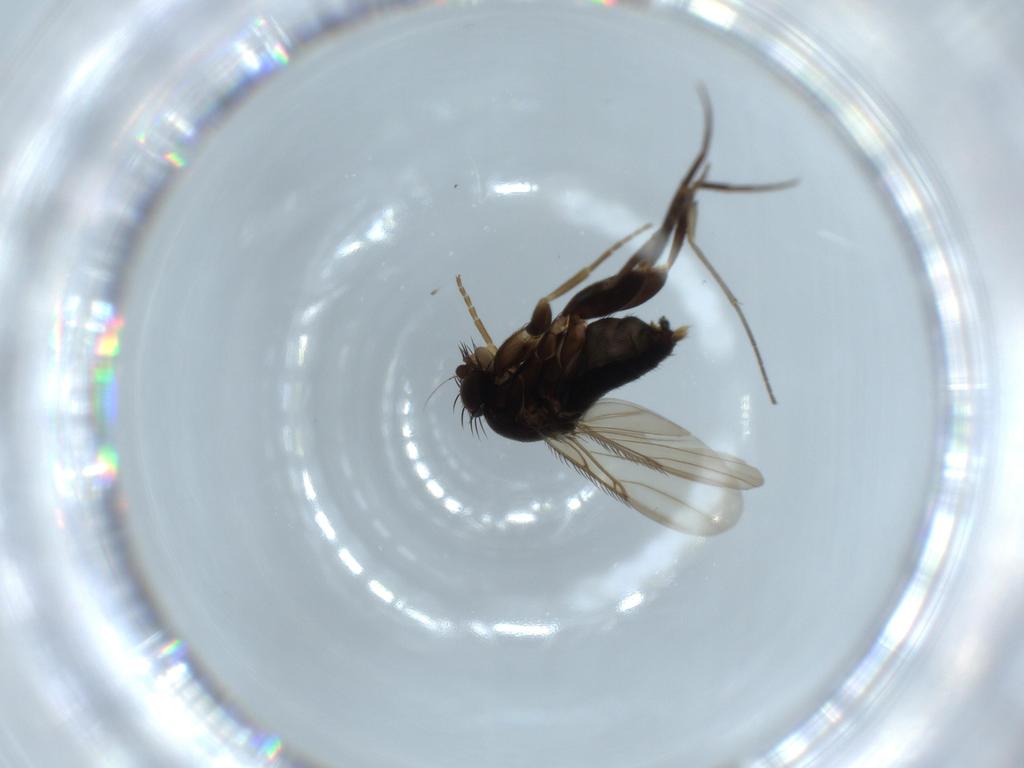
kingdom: Animalia
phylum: Arthropoda
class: Insecta
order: Diptera
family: Phoridae
